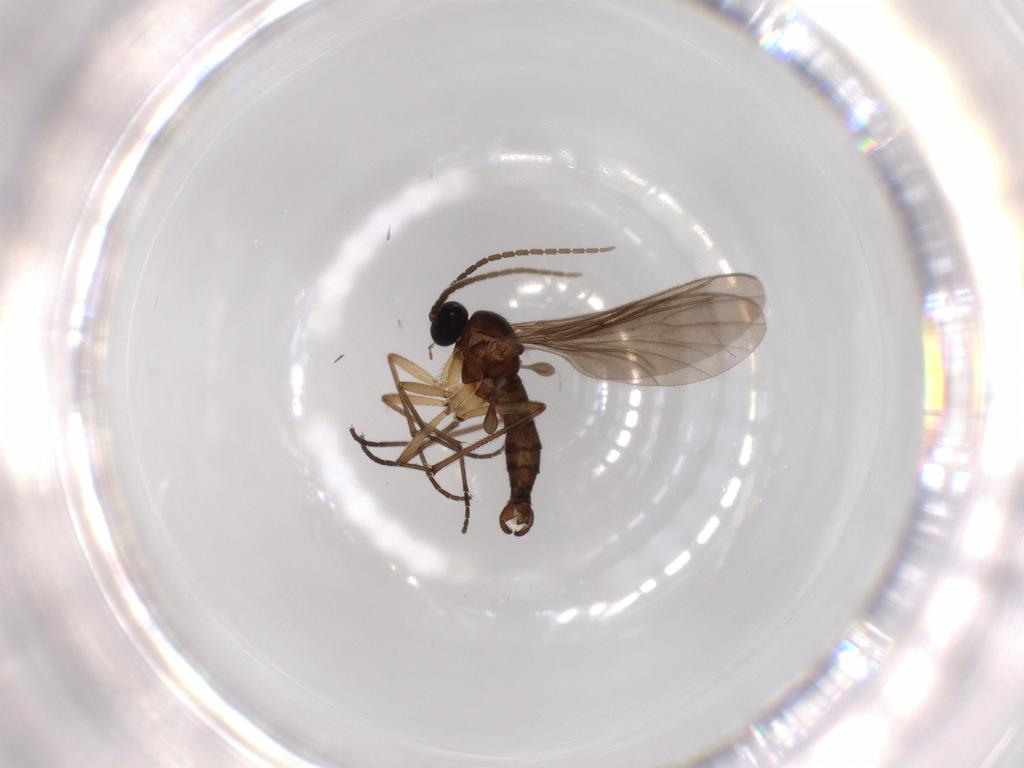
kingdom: Animalia
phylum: Arthropoda
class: Insecta
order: Diptera
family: Sciaridae
